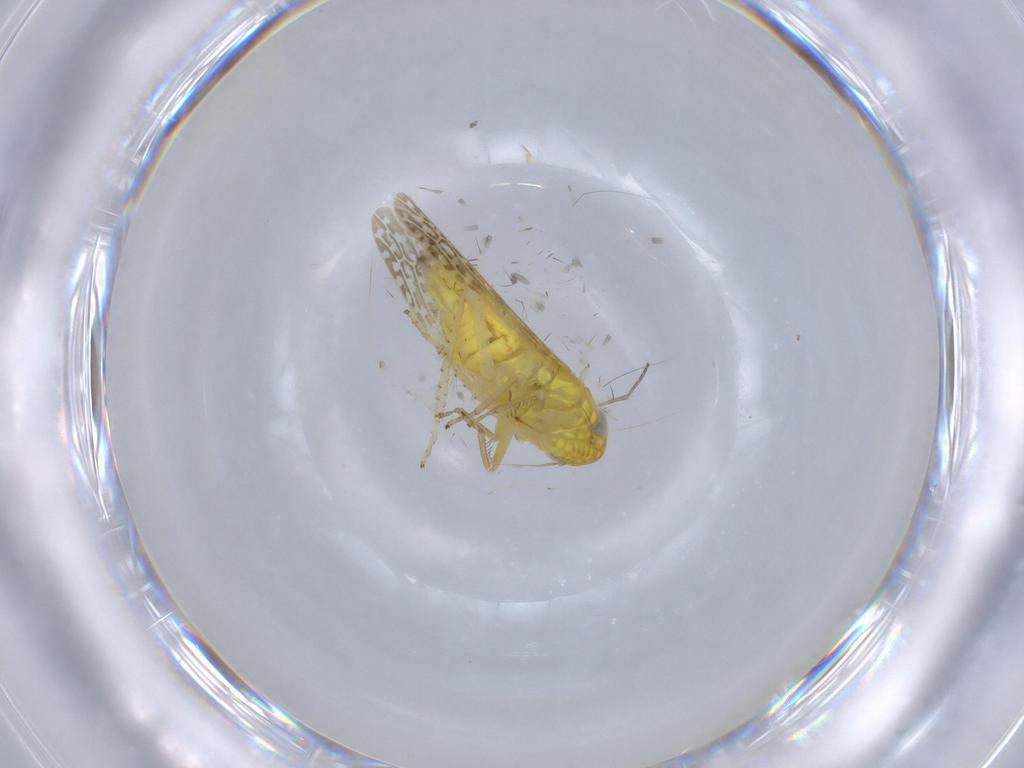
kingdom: Animalia
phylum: Arthropoda
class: Insecta
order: Hemiptera
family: Cicadellidae
